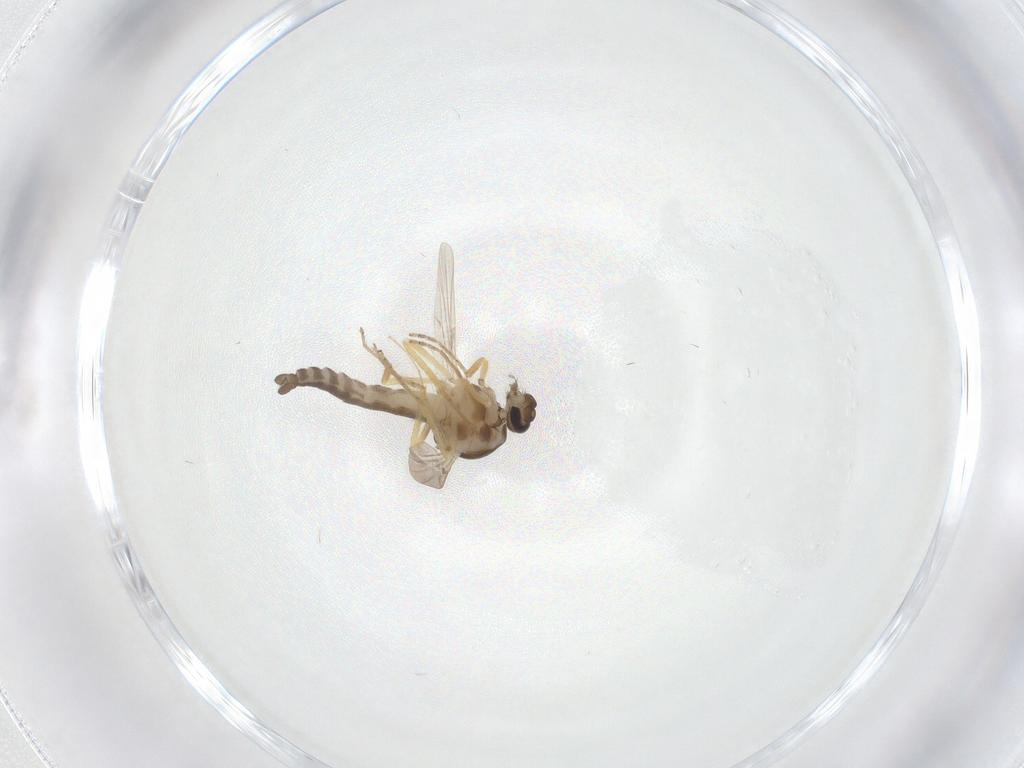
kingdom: Animalia
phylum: Arthropoda
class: Insecta
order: Diptera
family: Ceratopogonidae
